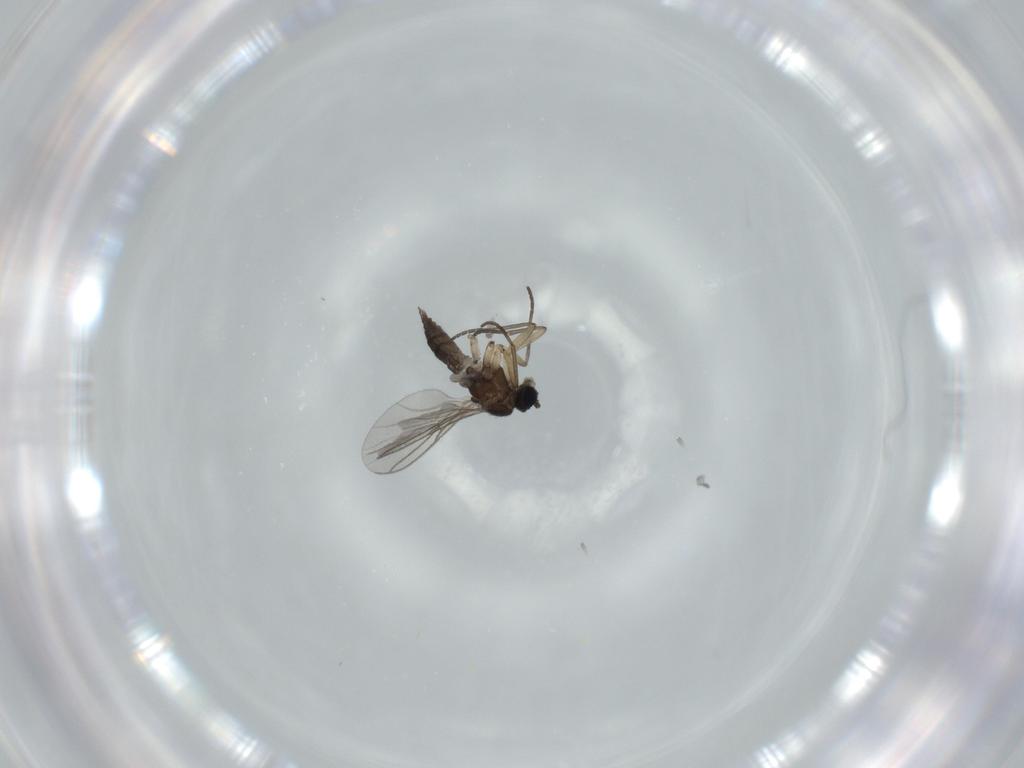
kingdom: Animalia
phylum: Arthropoda
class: Insecta
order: Diptera
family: Sciaridae
